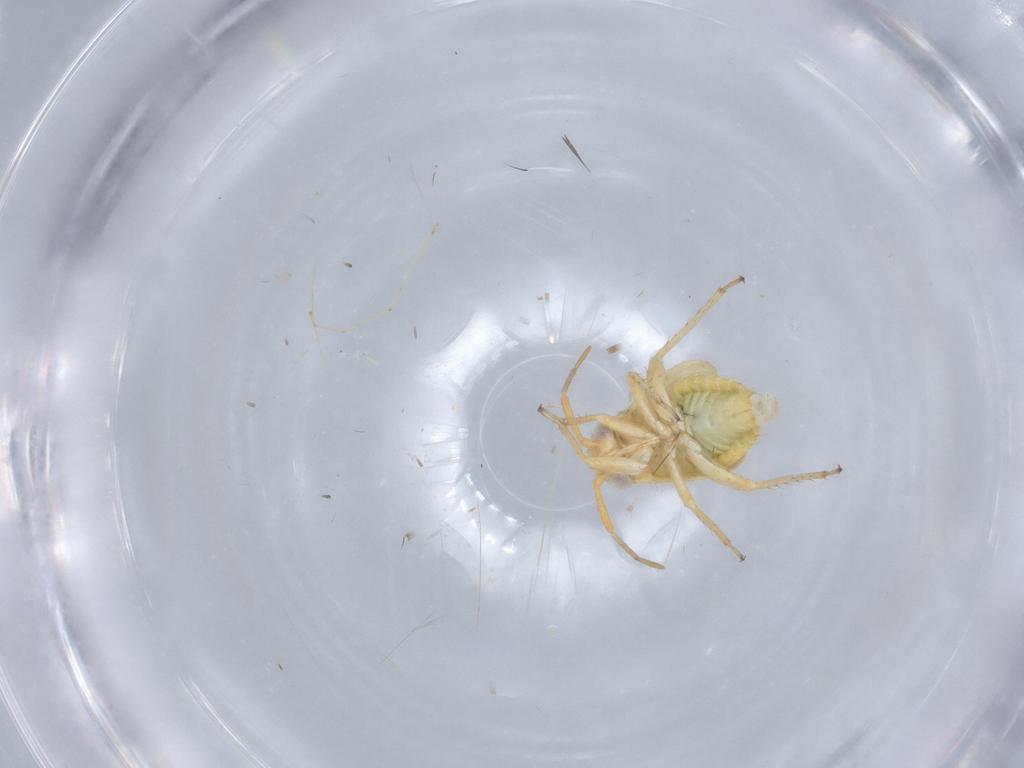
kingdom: Animalia
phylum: Arthropoda
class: Insecta
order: Hemiptera
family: Miridae
